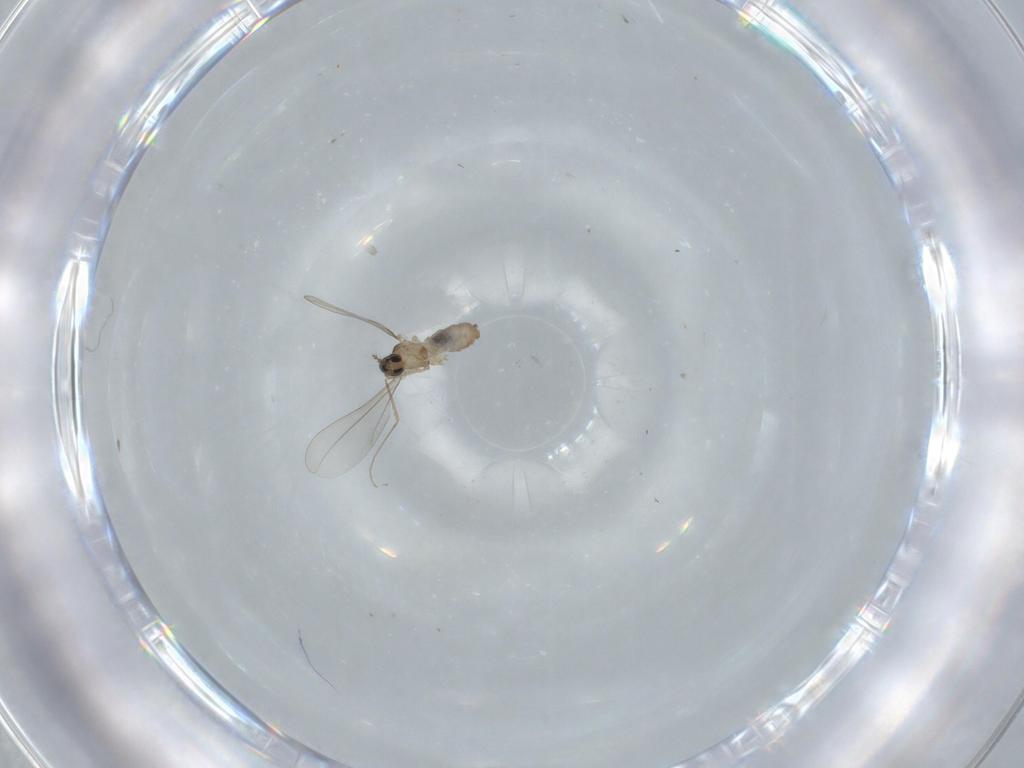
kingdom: Animalia
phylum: Arthropoda
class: Insecta
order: Diptera
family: Cecidomyiidae
